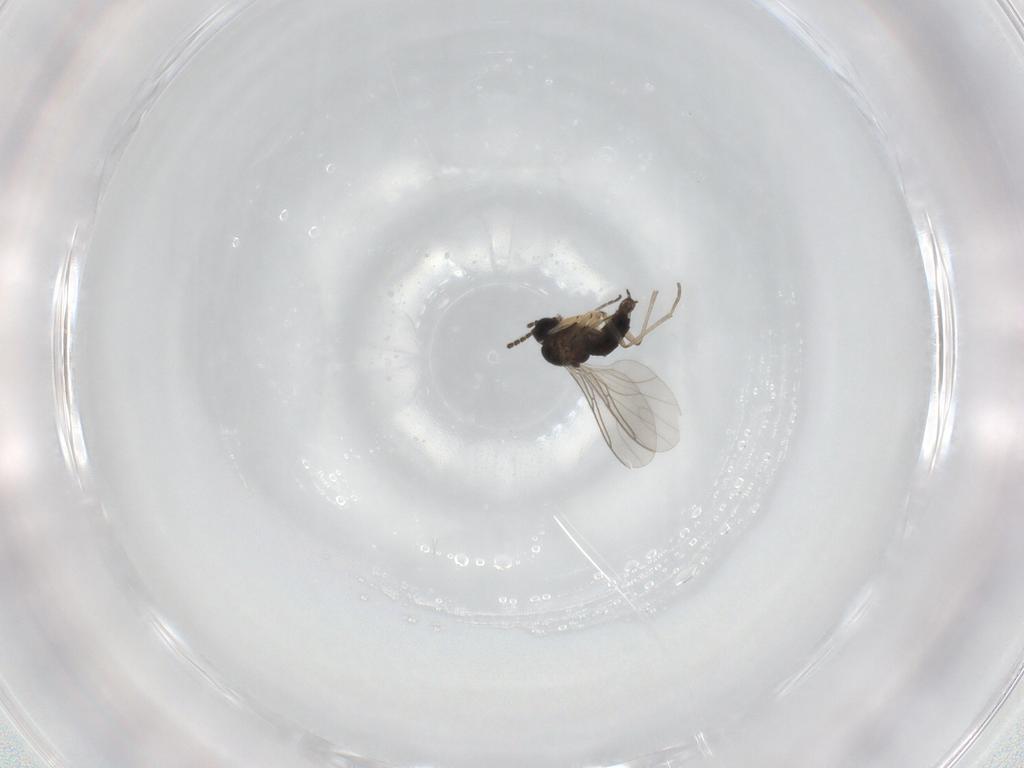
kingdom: Animalia
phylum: Arthropoda
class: Insecta
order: Diptera
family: Sciaridae
